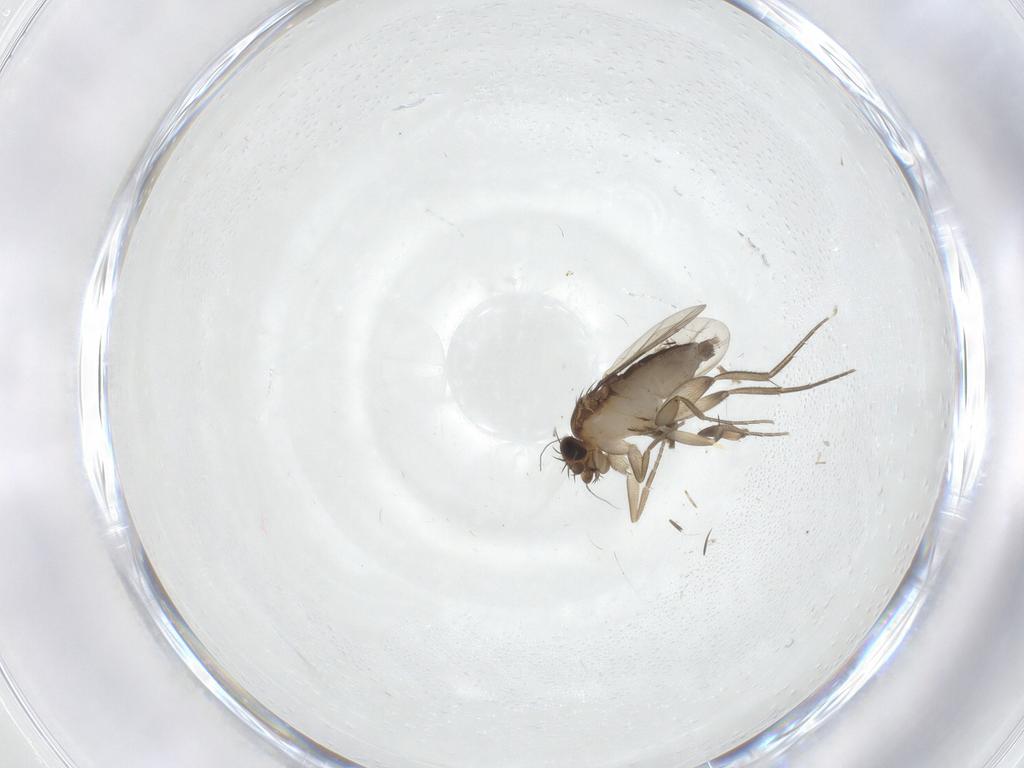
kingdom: Animalia
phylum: Arthropoda
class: Insecta
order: Diptera
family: Phoridae
